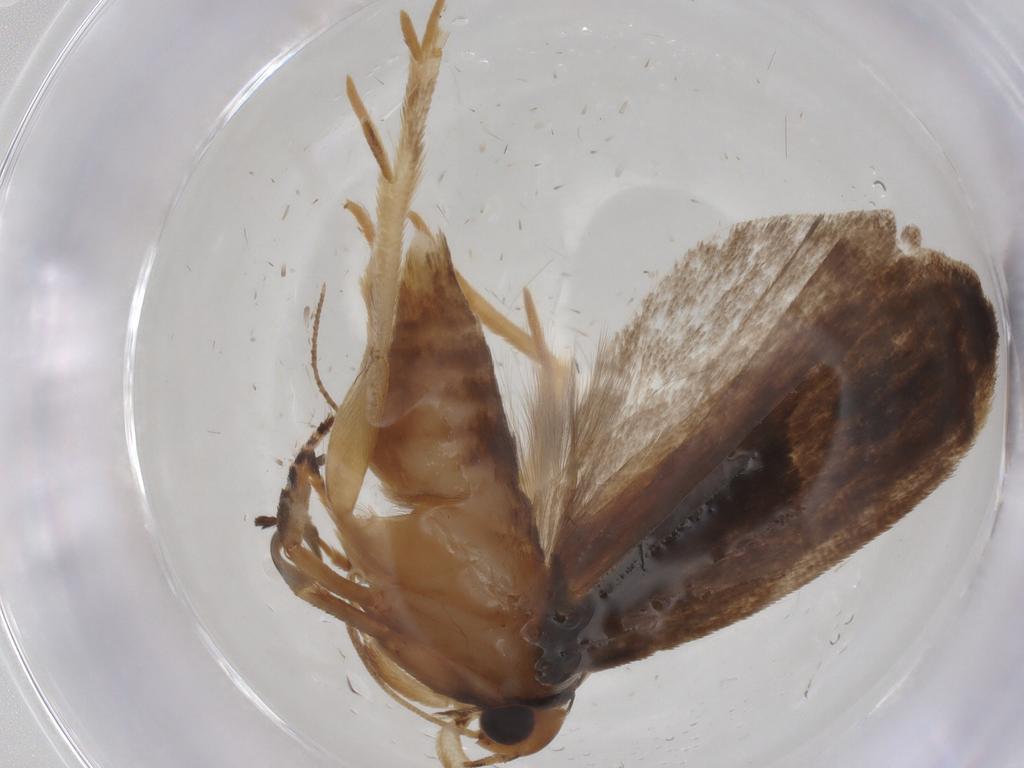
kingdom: Animalia
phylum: Arthropoda
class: Insecta
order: Lepidoptera
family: Gelechiidae
